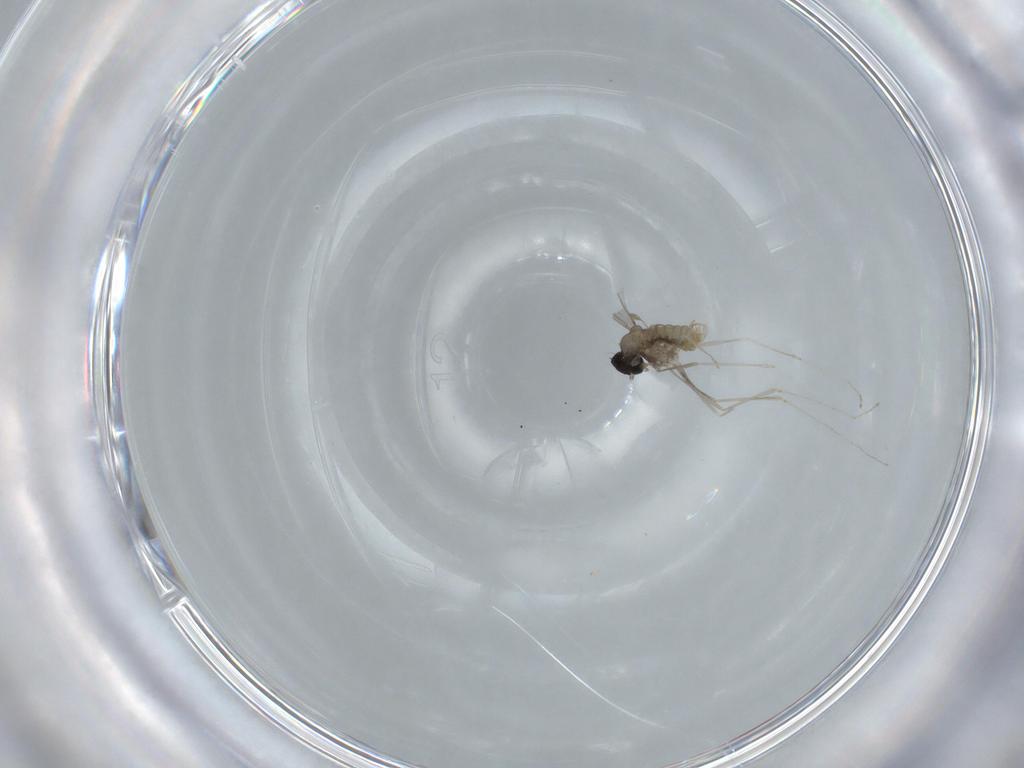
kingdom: Animalia
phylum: Arthropoda
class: Insecta
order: Diptera
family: Cecidomyiidae
